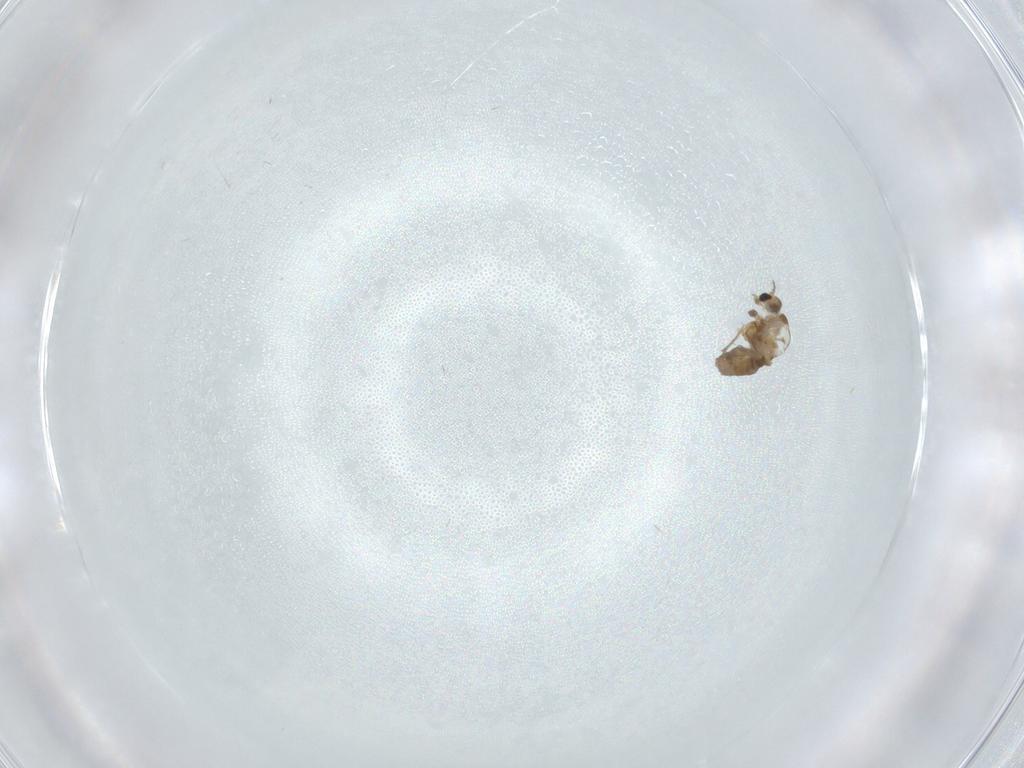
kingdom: Animalia
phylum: Arthropoda
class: Insecta
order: Diptera
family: Chironomidae
